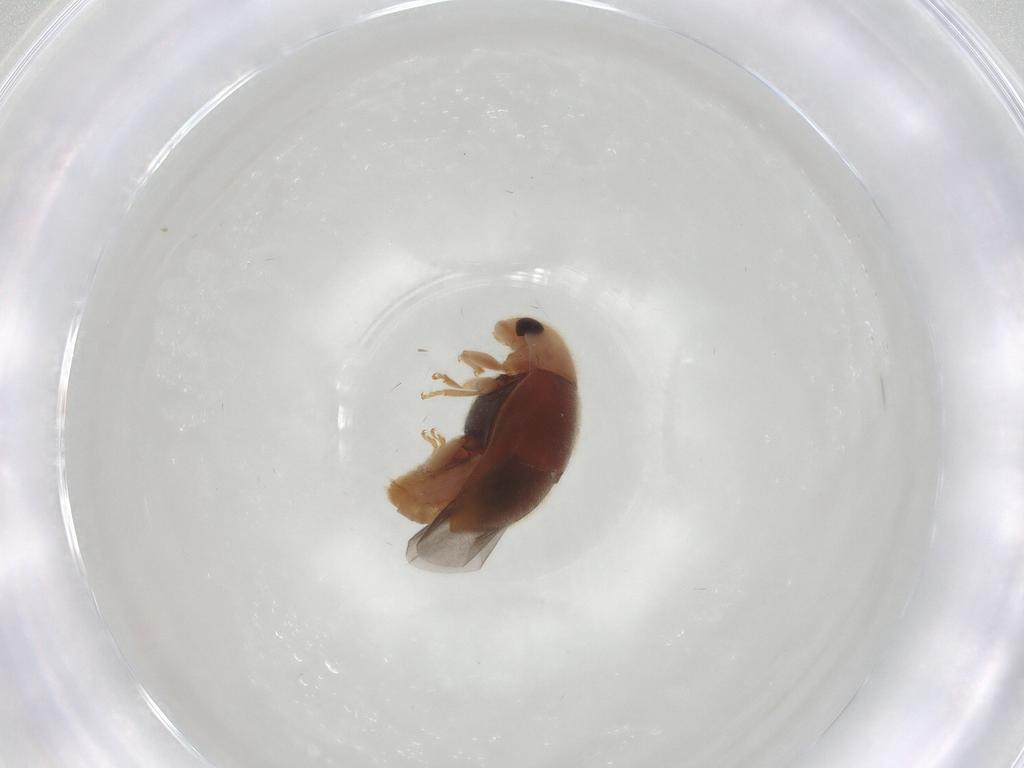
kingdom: Animalia
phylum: Arthropoda
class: Insecta
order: Coleoptera
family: Coccinellidae
